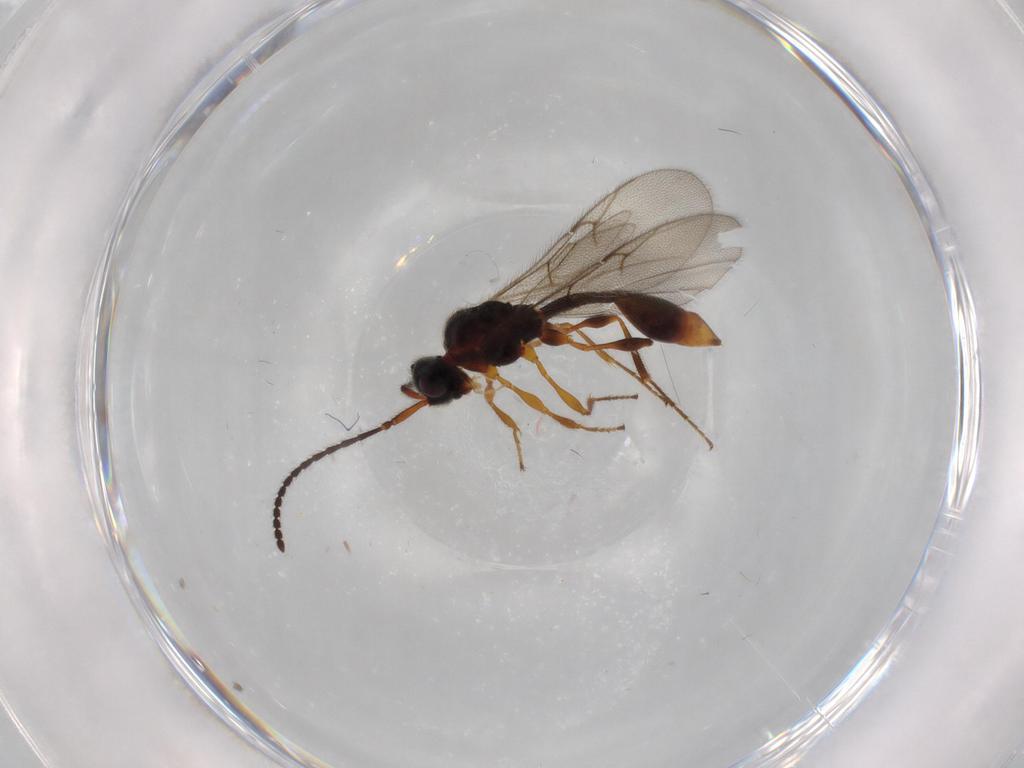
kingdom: Animalia
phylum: Arthropoda
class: Insecta
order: Hymenoptera
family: Diapriidae
